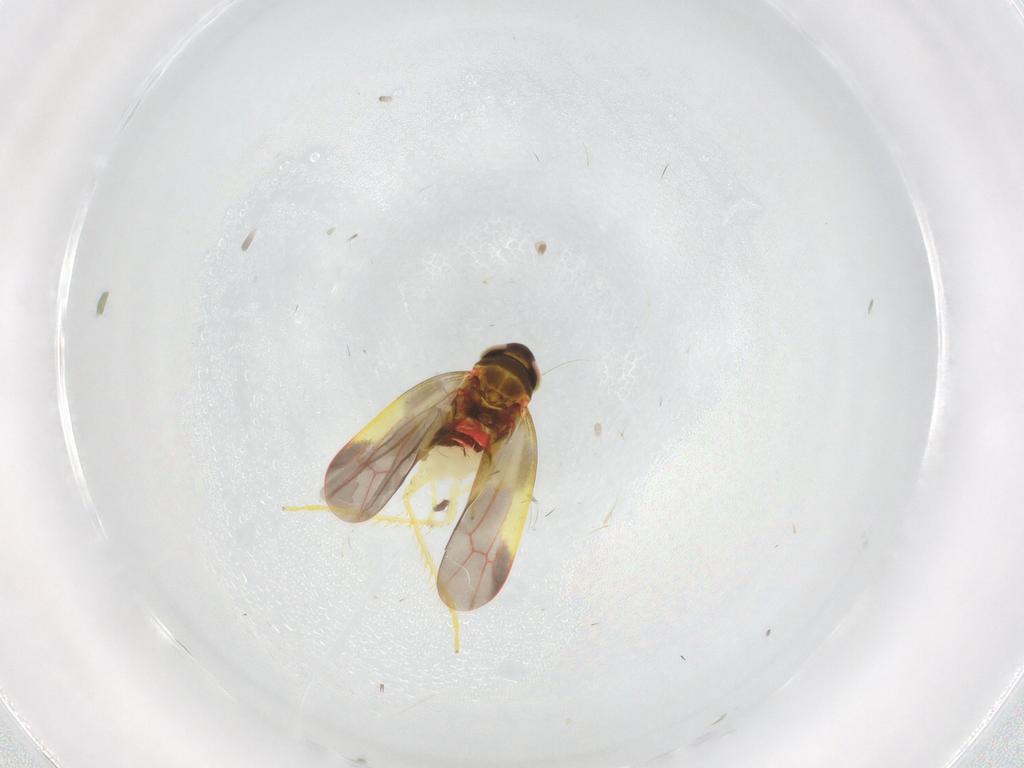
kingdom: Animalia
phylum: Arthropoda
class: Insecta
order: Hemiptera
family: Cicadellidae
